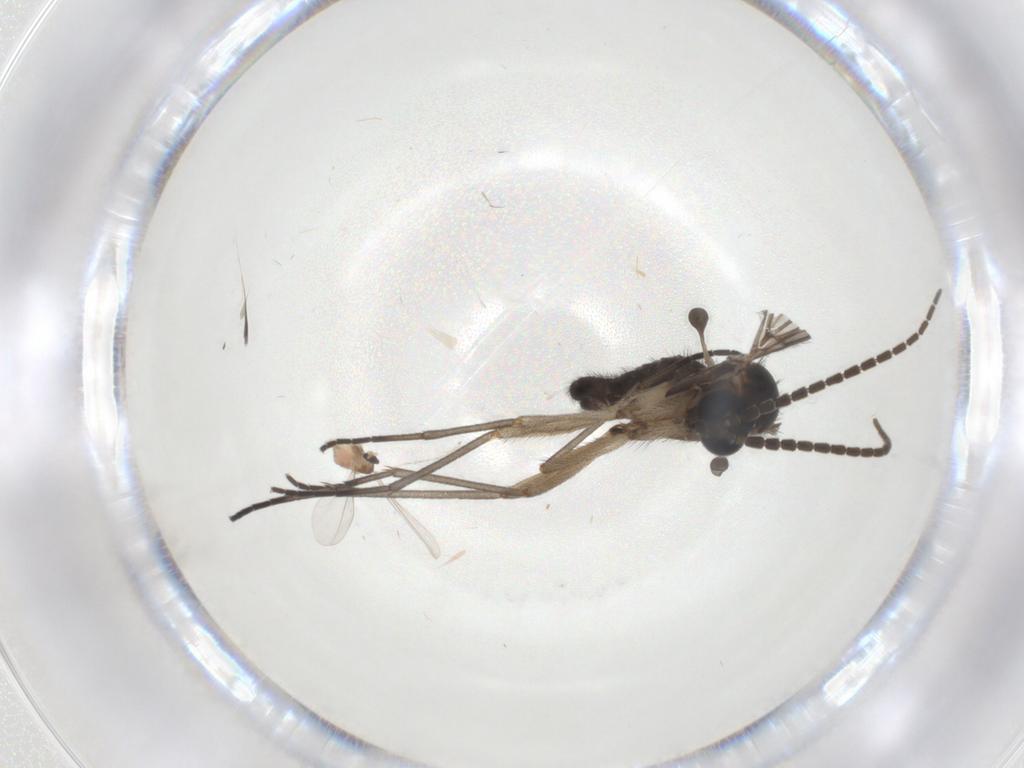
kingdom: Animalia
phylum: Arthropoda
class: Insecta
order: Diptera
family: Sciaridae
